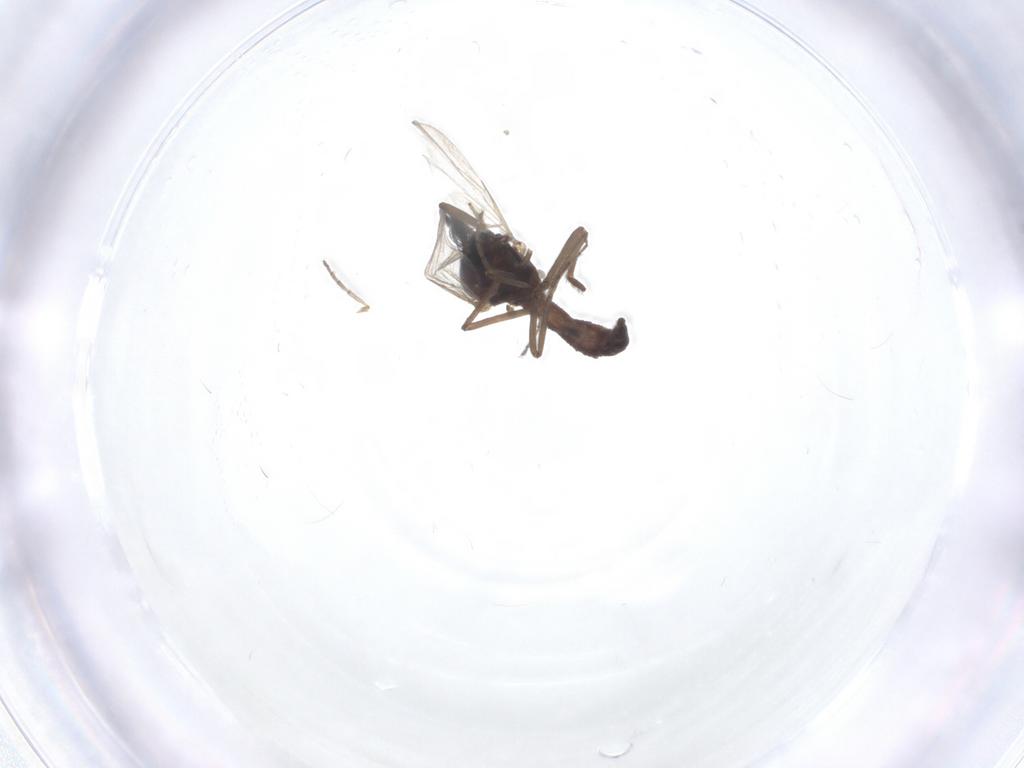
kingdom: Animalia
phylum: Arthropoda
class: Insecta
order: Diptera
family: Ceratopogonidae
